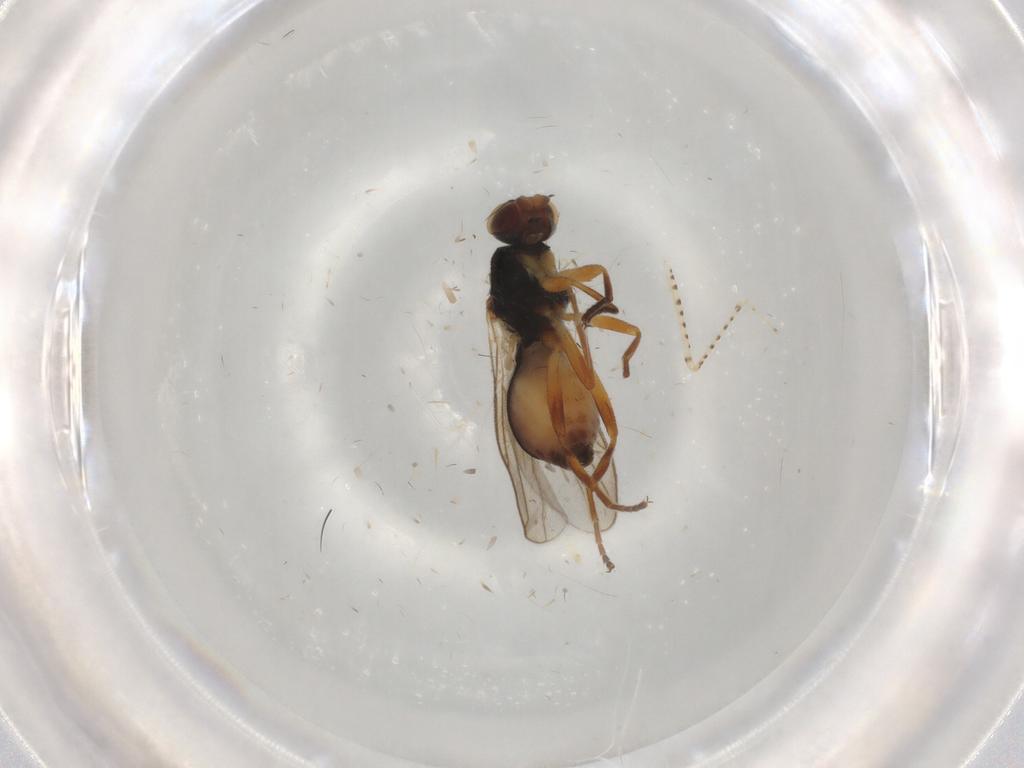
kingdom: Animalia
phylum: Arthropoda
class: Insecta
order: Diptera
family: Chloropidae
